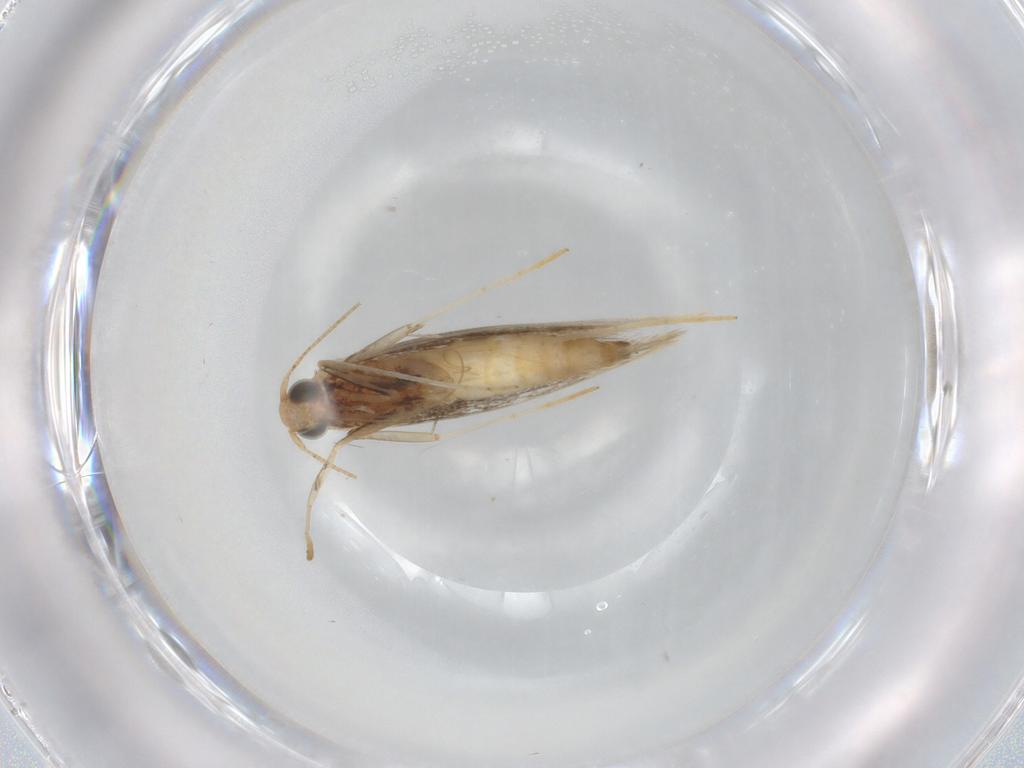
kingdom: Animalia
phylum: Arthropoda
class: Insecta
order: Lepidoptera
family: Gracillariidae
